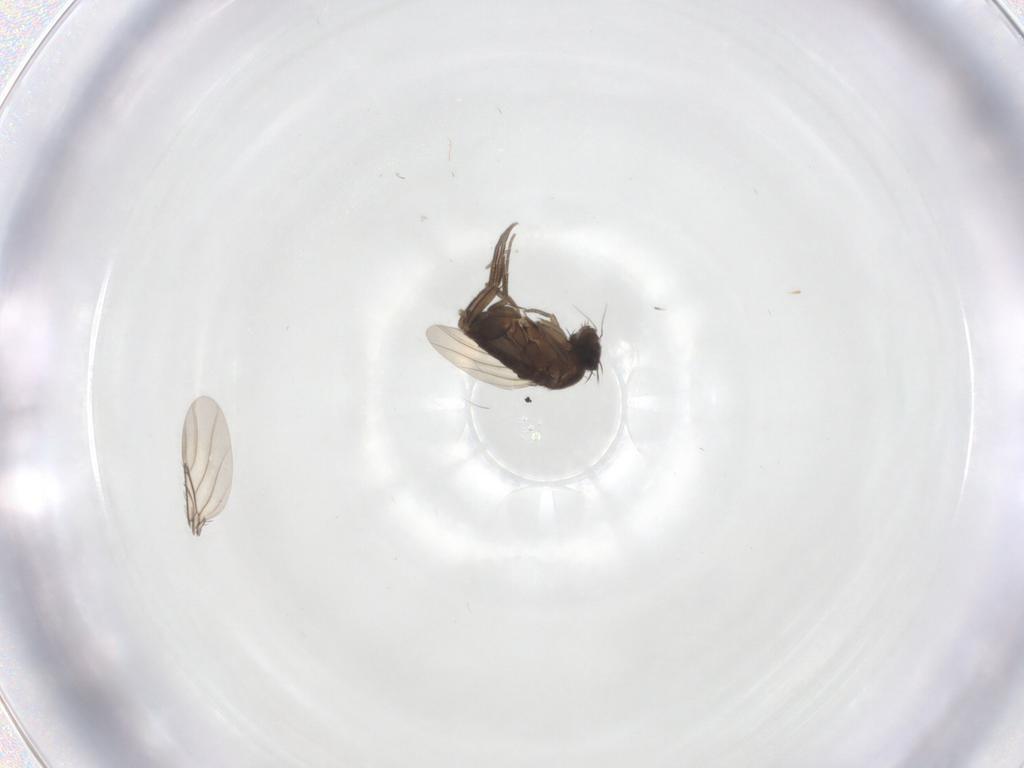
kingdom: Animalia
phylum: Arthropoda
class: Insecta
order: Diptera
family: Phoridae
